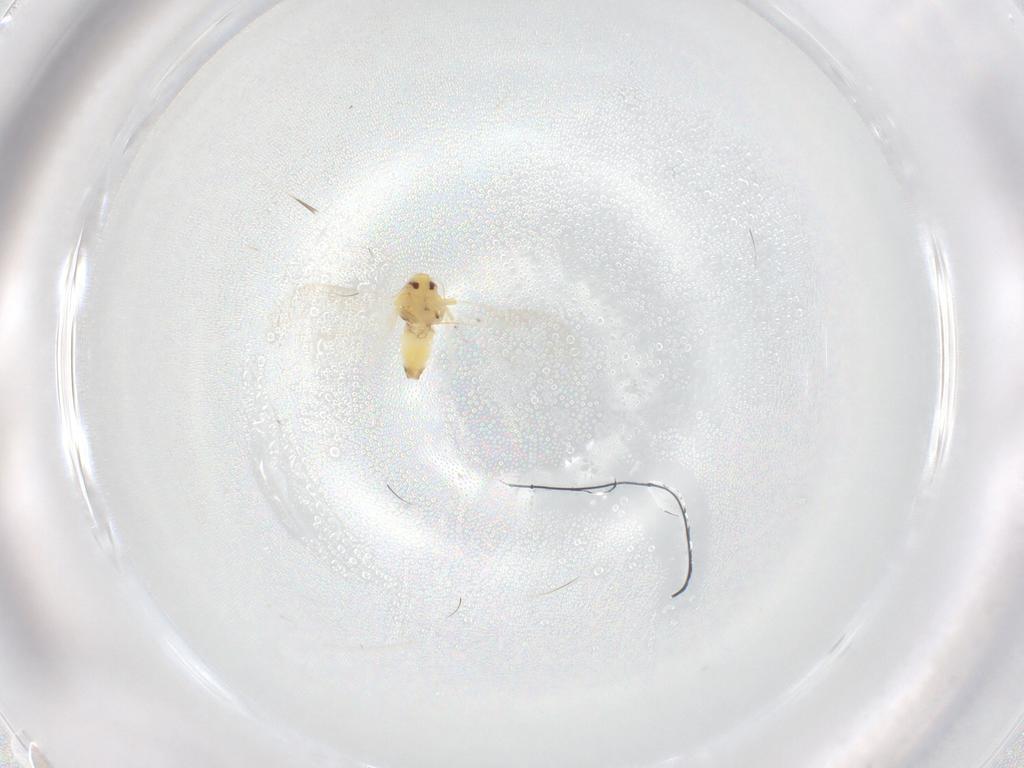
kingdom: Animalia
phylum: Arthropoda
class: Insecta
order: Hemiptera
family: Aleyrodidae
